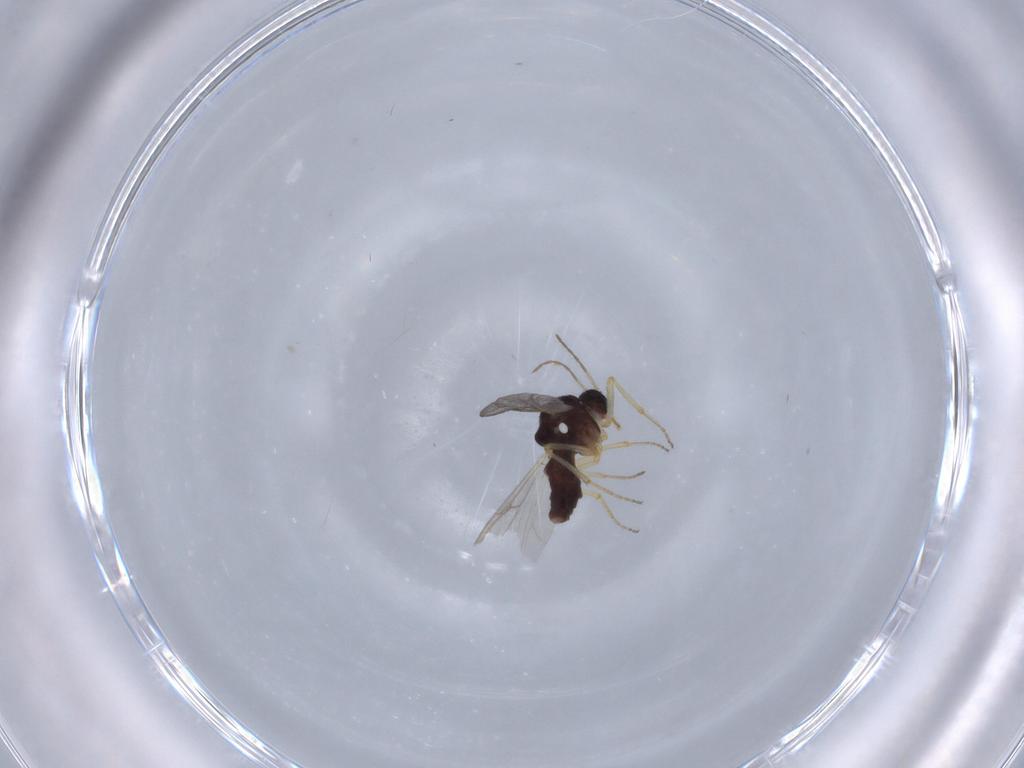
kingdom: Animalia
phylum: Arthropoda
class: Insecta
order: Diptera
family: Ceratopogonidae
